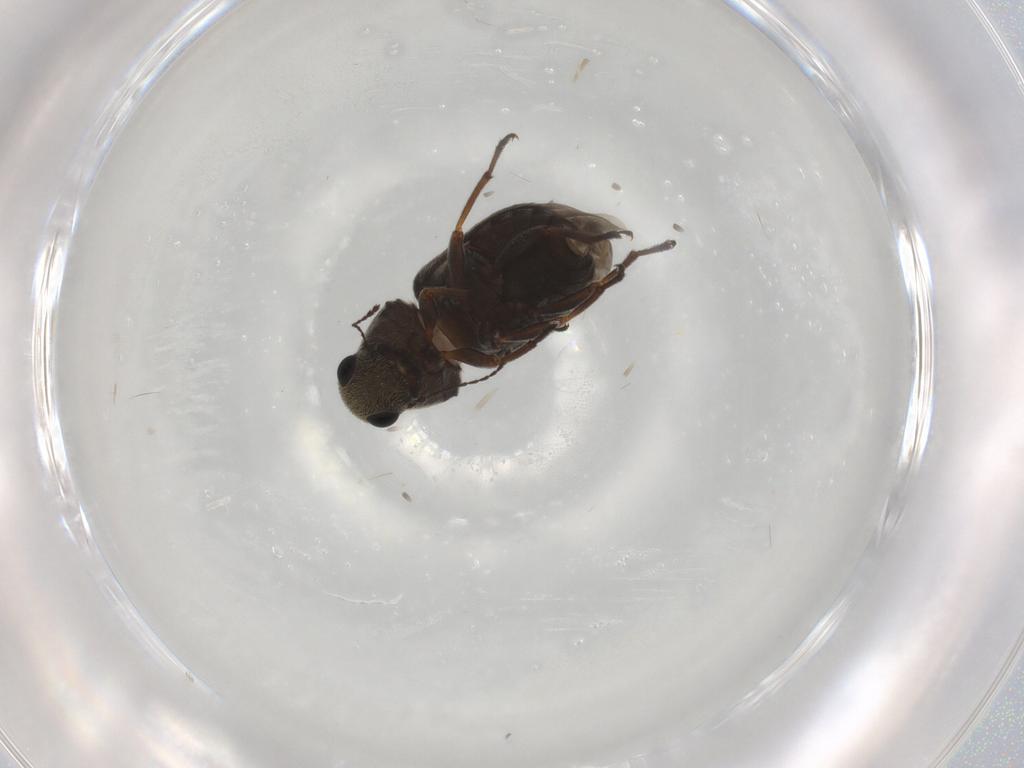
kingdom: Animalia
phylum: Arthropoda
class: Insecta
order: Coleoptera
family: Anthribidae
